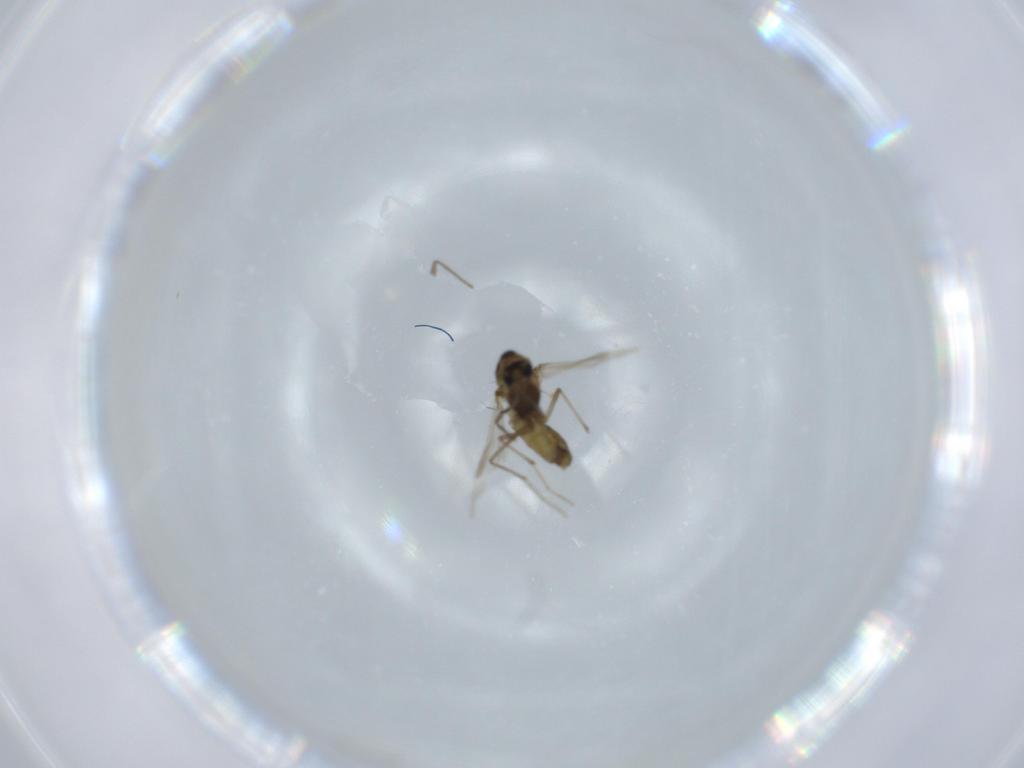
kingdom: Animalia
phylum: Arthropoda
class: Insecta
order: Diptera
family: Chironomidae
